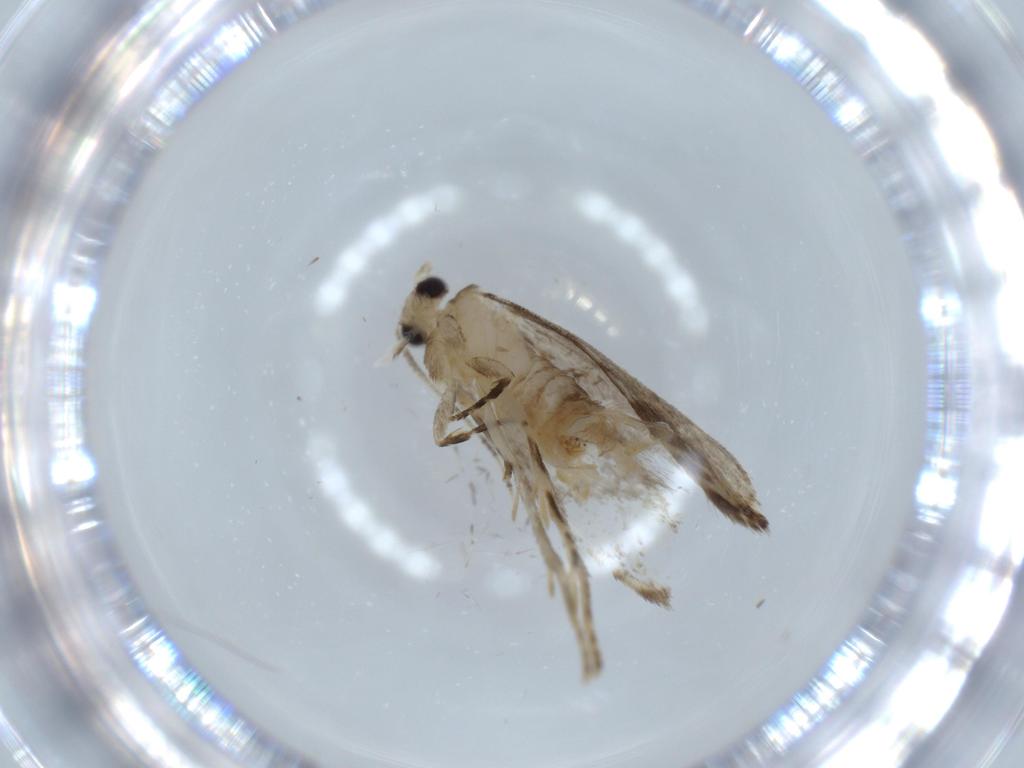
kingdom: Animalia
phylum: Arthropoda
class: Insecta
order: Lepidoptera
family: Tineidae
